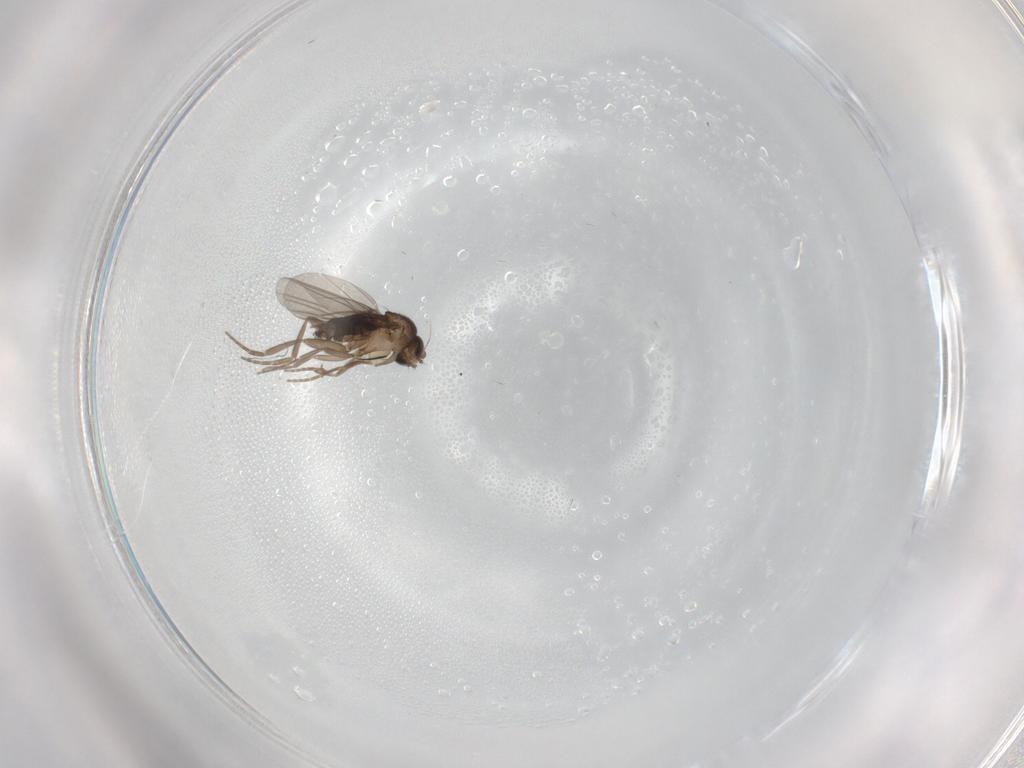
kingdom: Animalia
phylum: Arthropoda
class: Insecta
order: Diptera
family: Phoridae
